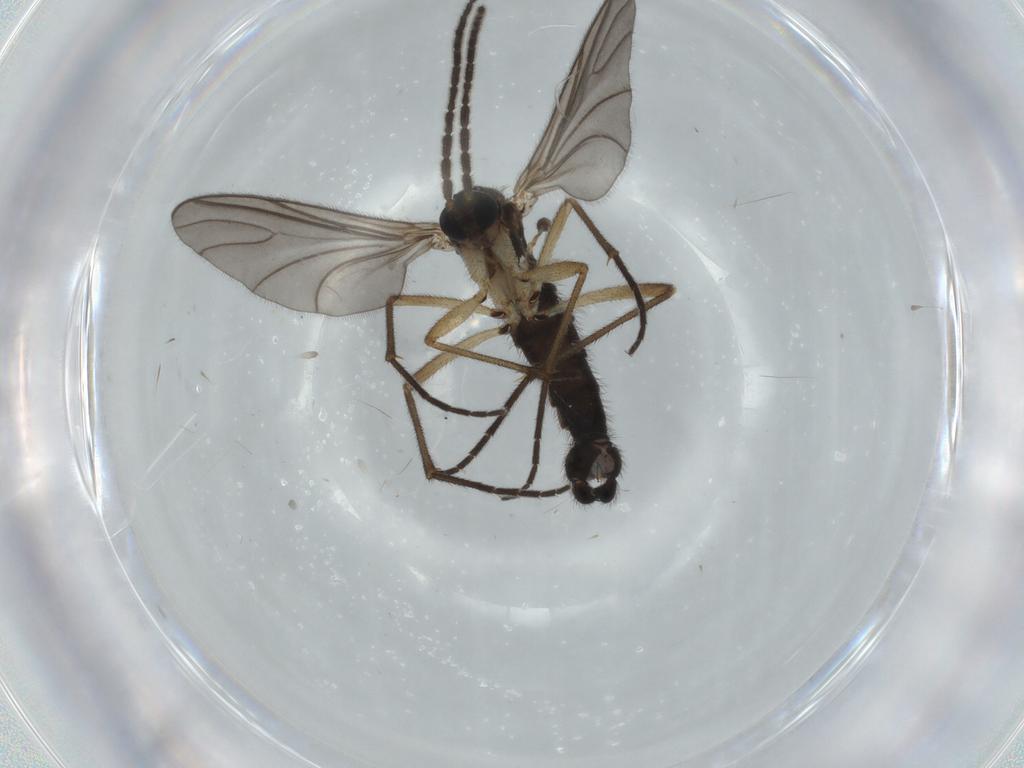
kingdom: Animalia
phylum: Arthropoda
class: Insecta
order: Diptera
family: Sciaridae
